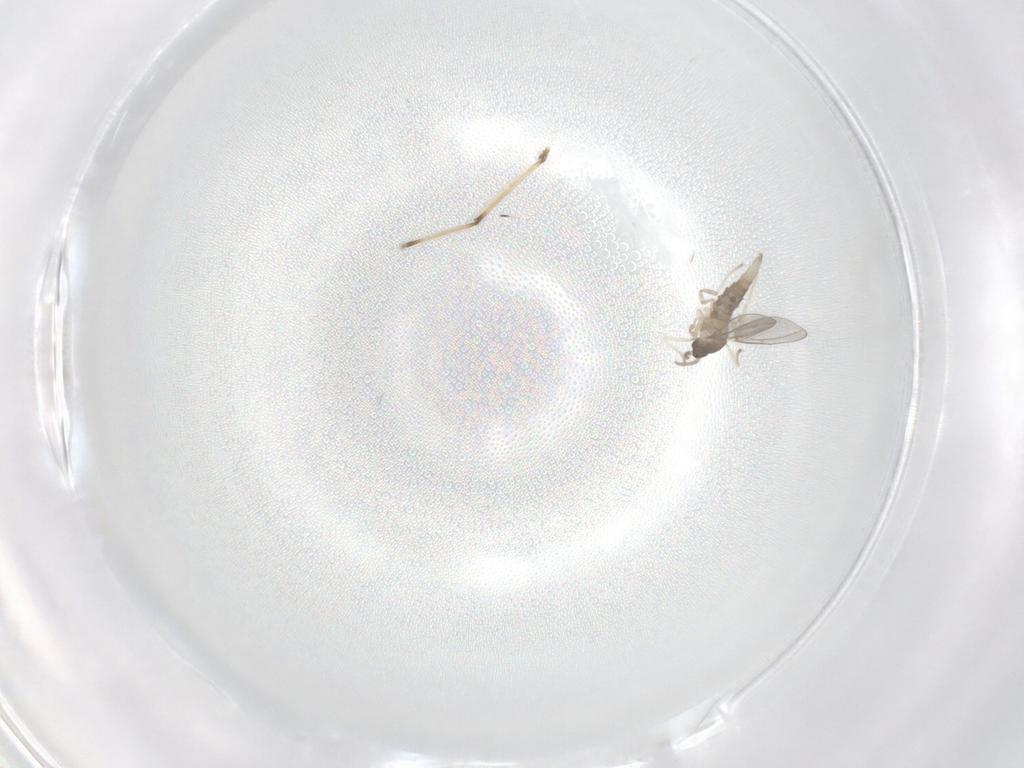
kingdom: Animalia
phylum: Arthropoda
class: Insecta
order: Diptera
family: Chironomidae
